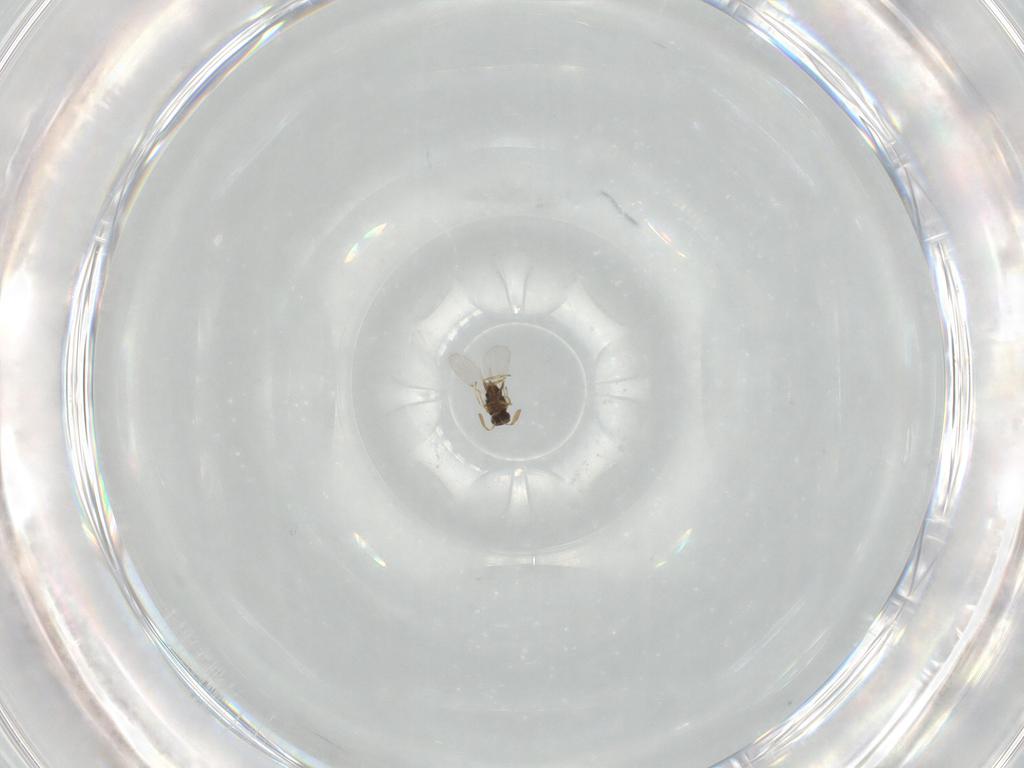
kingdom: Animalia
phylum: Arthropoda
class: Insecta
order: Hymenoptera
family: Encyrtidae
